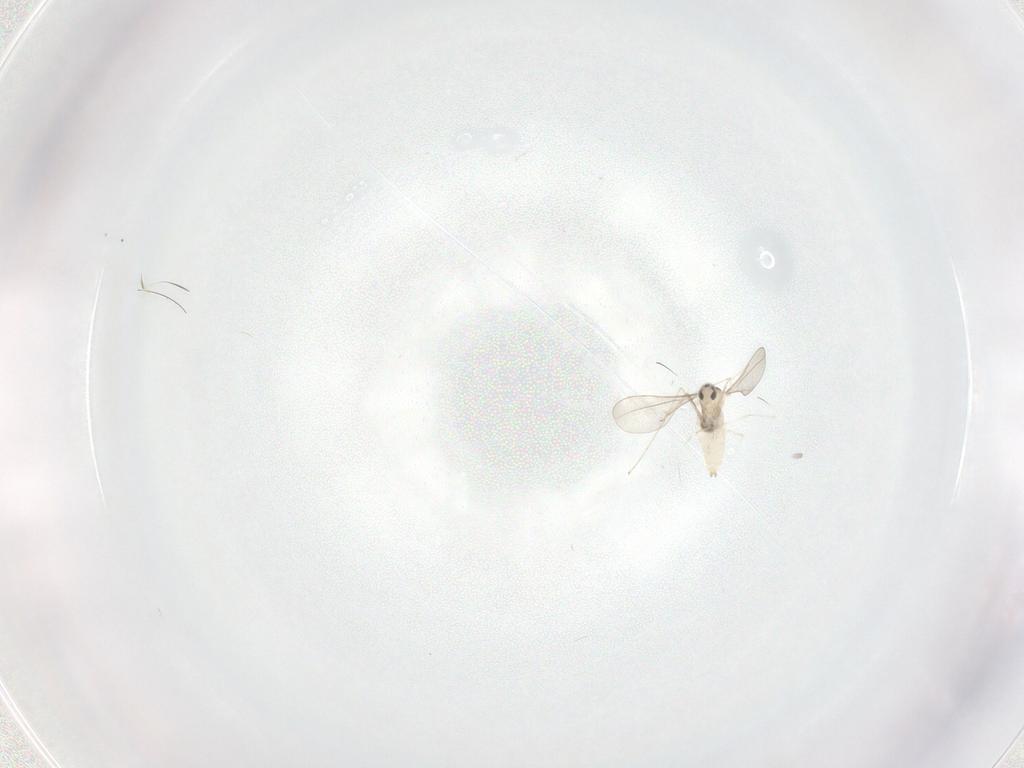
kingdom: Animalia
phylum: Arthropoda
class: Insecta
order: Diptera
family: Cecidomyiidae
